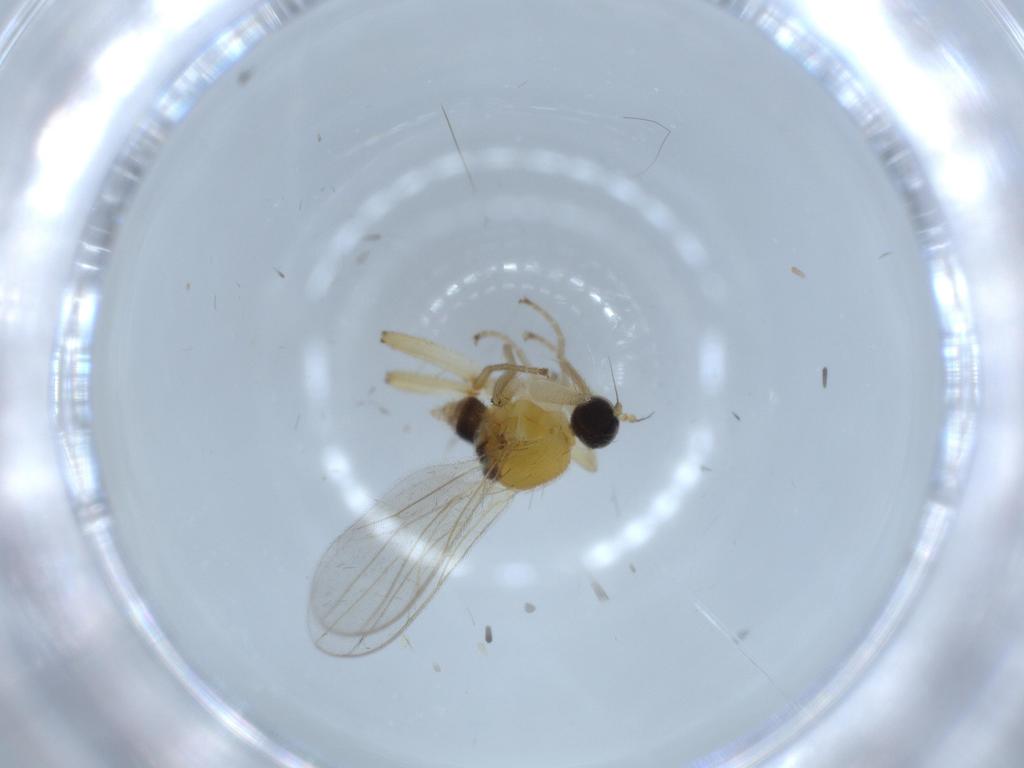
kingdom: Animalia
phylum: Arthropoda
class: Insecta
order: Diptera
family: Hybotidae
